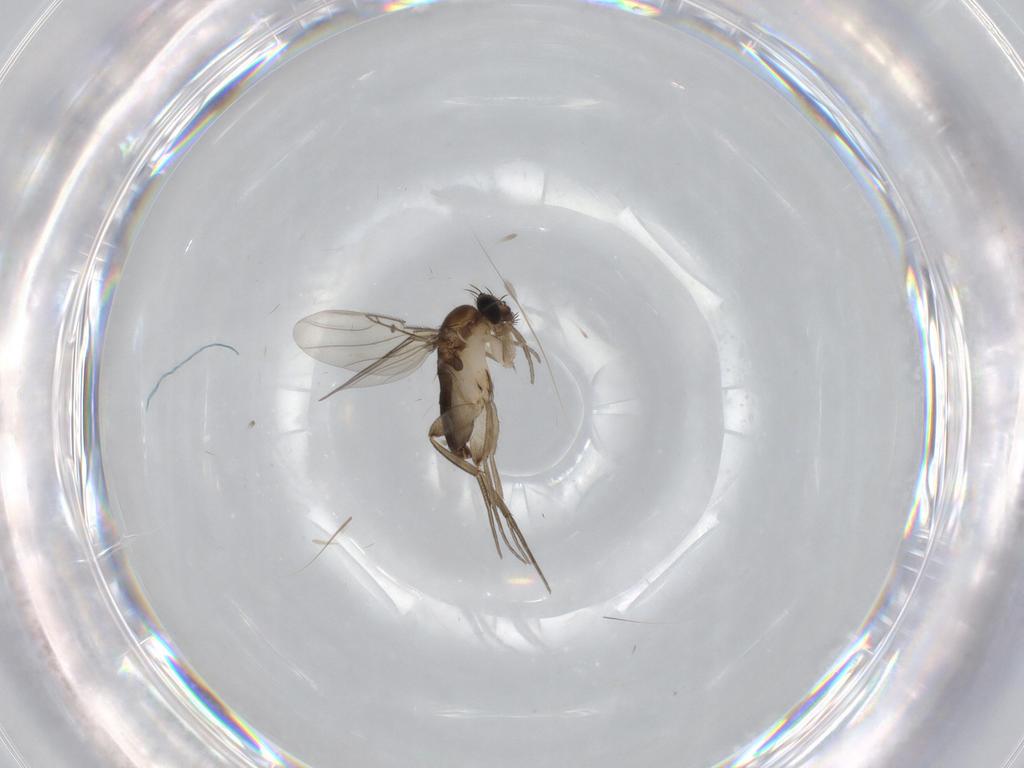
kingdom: Animalia
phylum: Arthropoda
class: Insecta
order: Diptera
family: Phoridae
